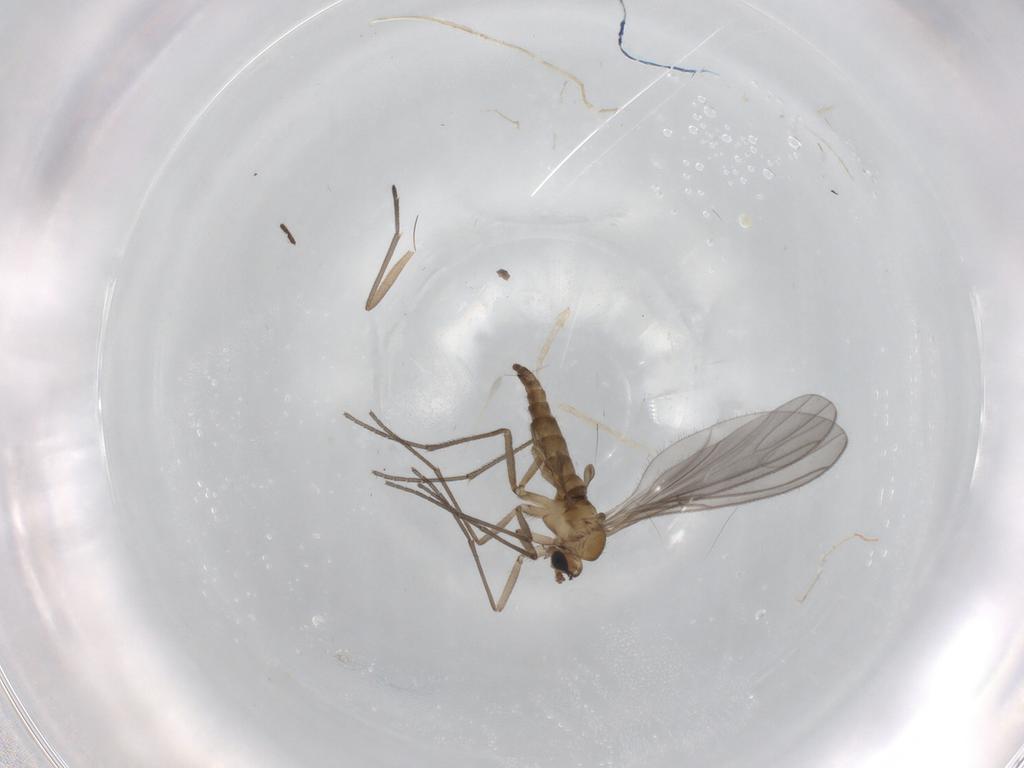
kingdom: Animalia
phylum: Arthropoda
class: Insecta
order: Diptera
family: Sciaridae
